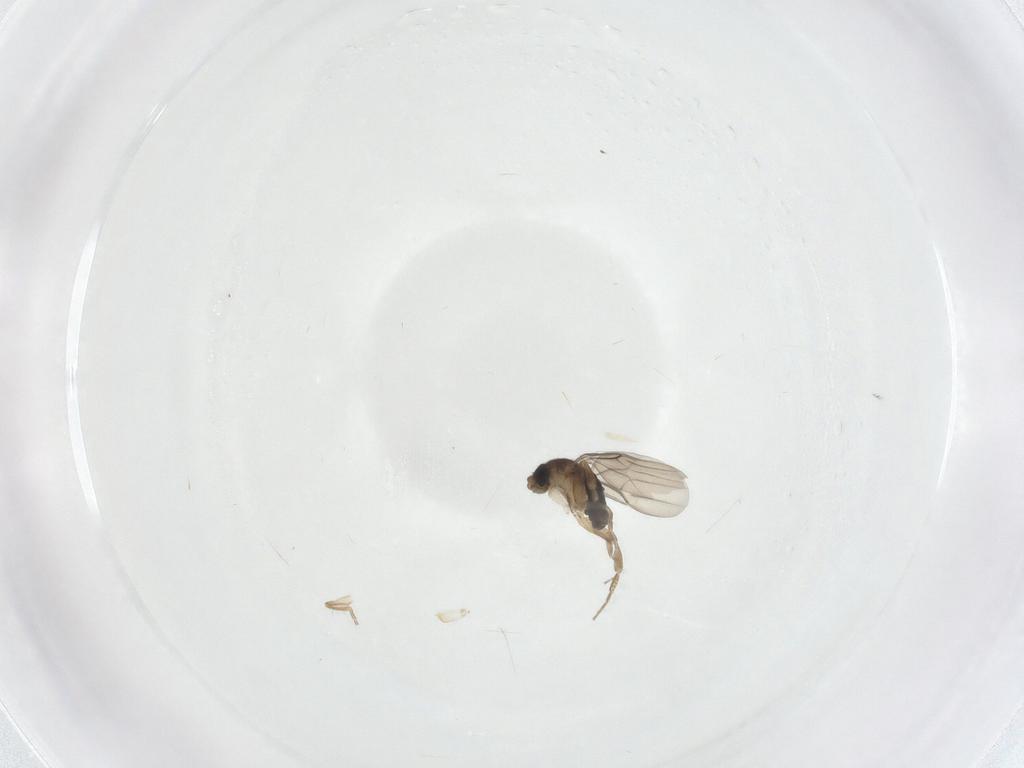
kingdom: Animalia
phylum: Arthropoda
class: Insecta
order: Diptera
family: Phoridae
